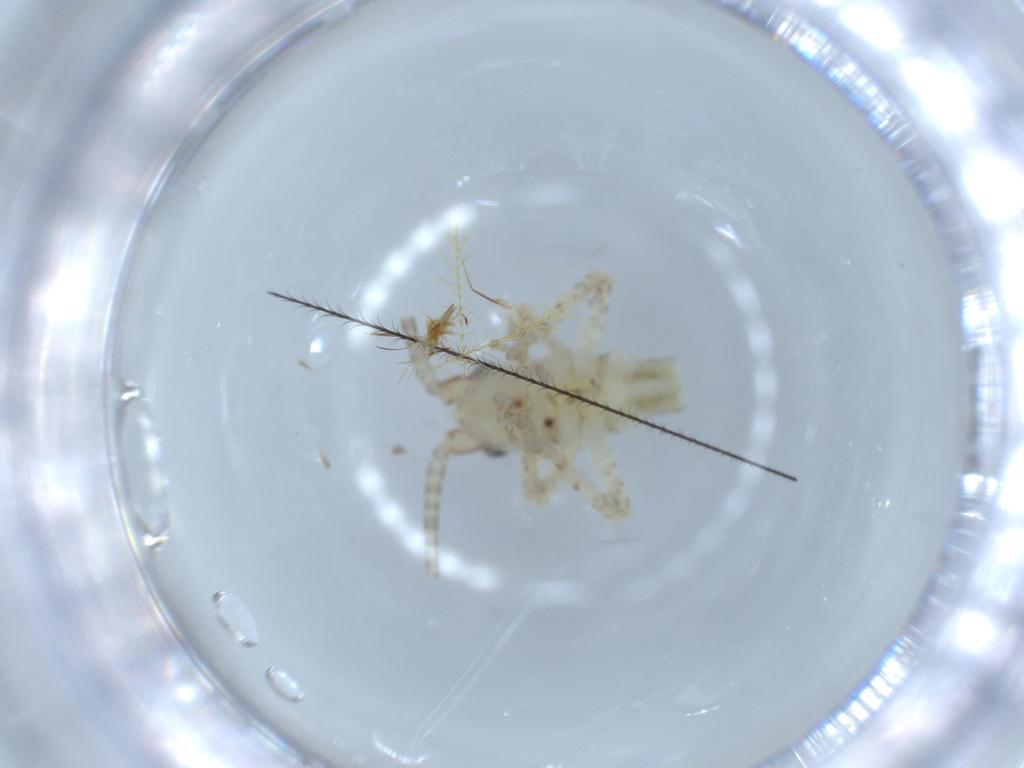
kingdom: Animalia
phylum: Arthropoda
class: Insecta
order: Orthoptera
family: Gryllidae
